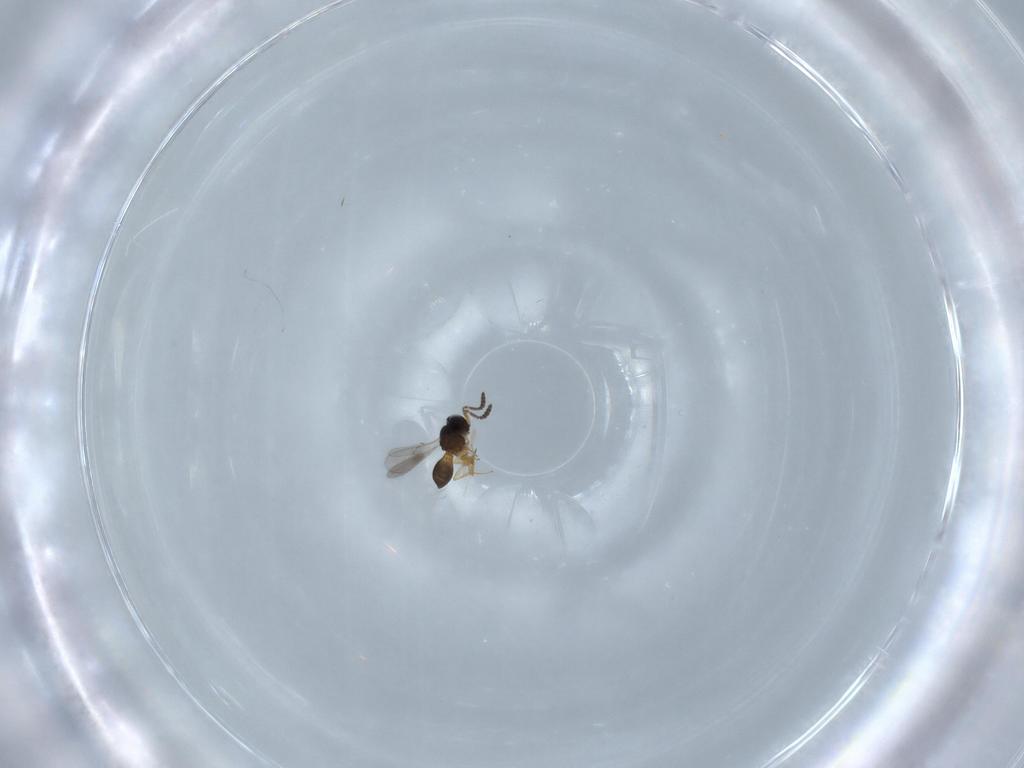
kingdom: Animalia
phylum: Arthropoda
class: Insecta
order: Hymenoptera
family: Scelionidae
